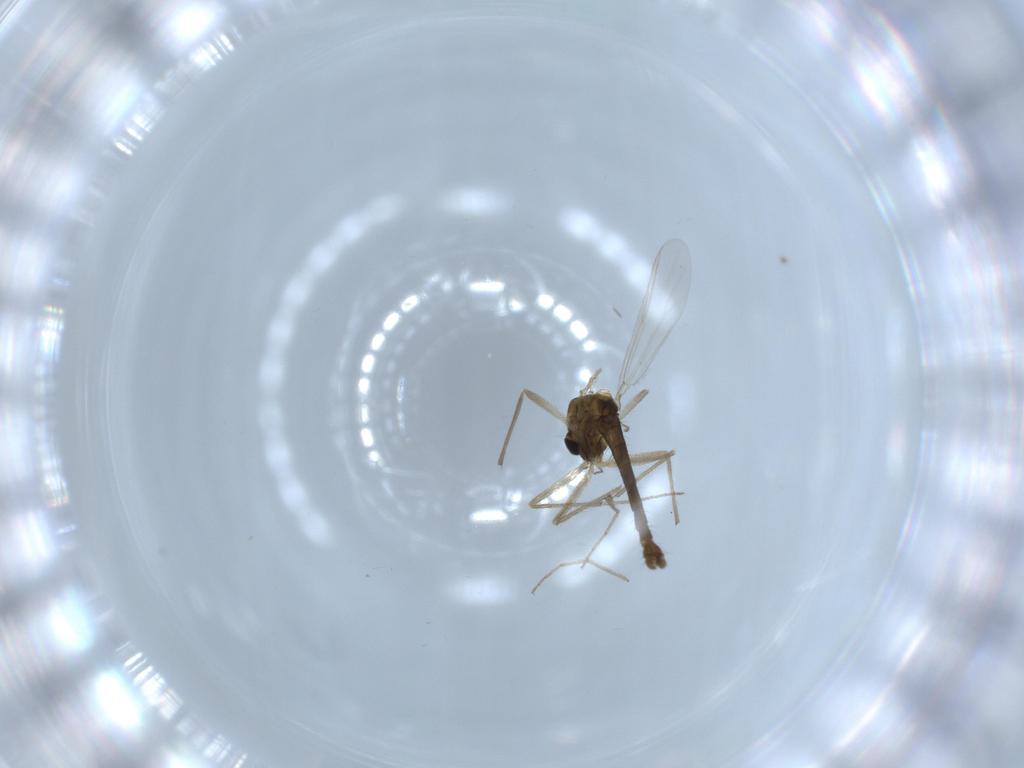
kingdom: Animalia
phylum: Arthropoda
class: Insecta
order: Diptera
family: Chironomidae
